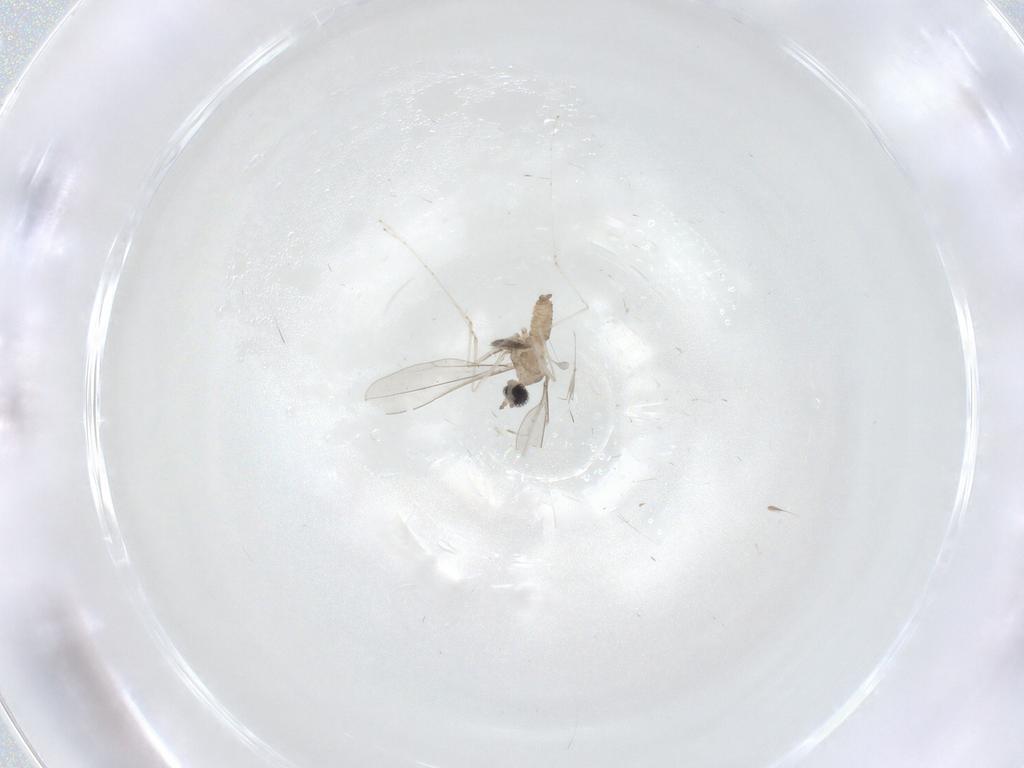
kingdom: Animalia
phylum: Arthropoda
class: Insecta
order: Diptera
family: Cecidomyiidae
